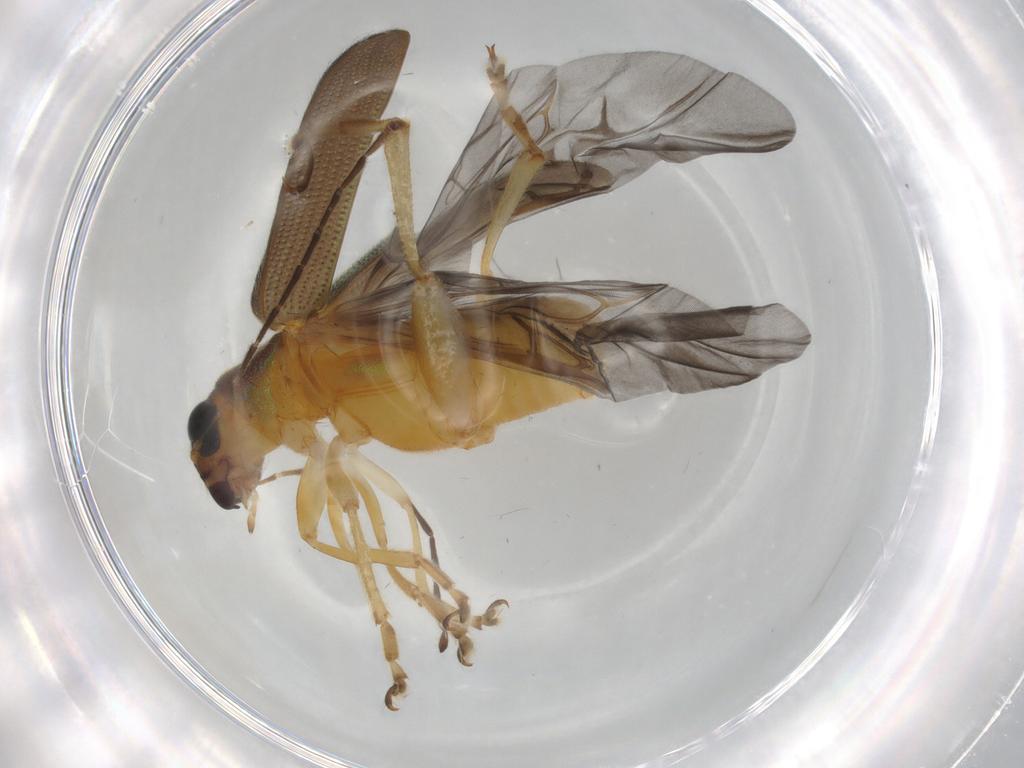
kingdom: Animalia
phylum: Arthropoda
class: Insecta
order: Coleoptera
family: Chrysomelidae
